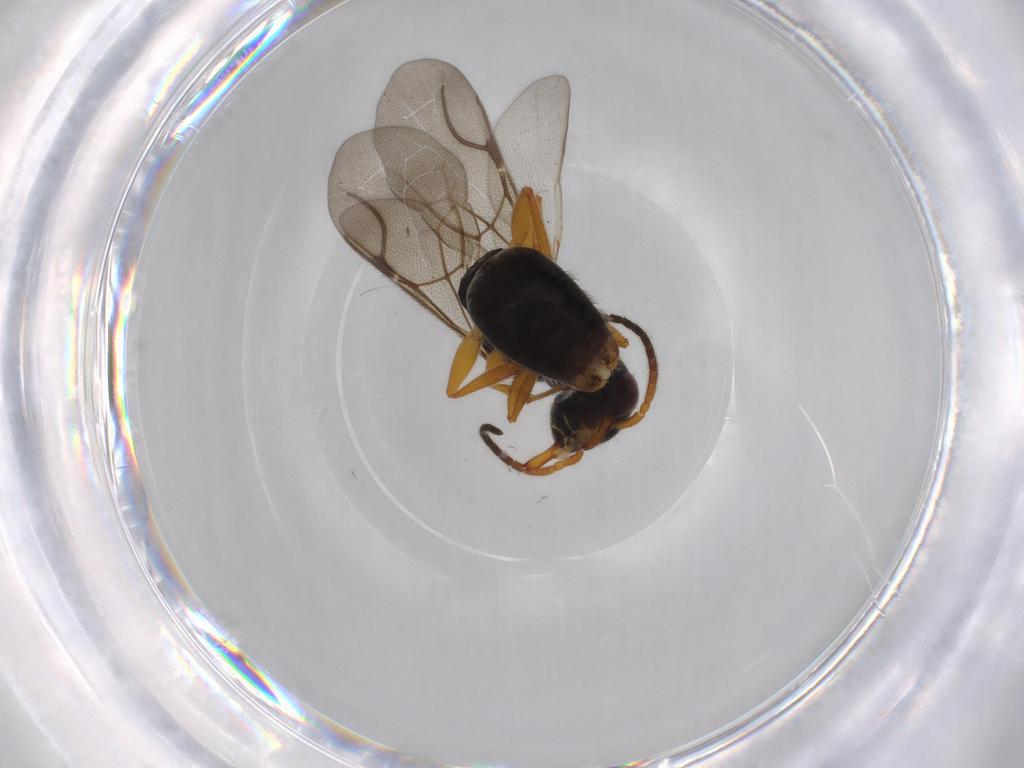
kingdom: Animalia
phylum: Arthropoda
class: Insecta
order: Hymenoptera
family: Bethylidae
